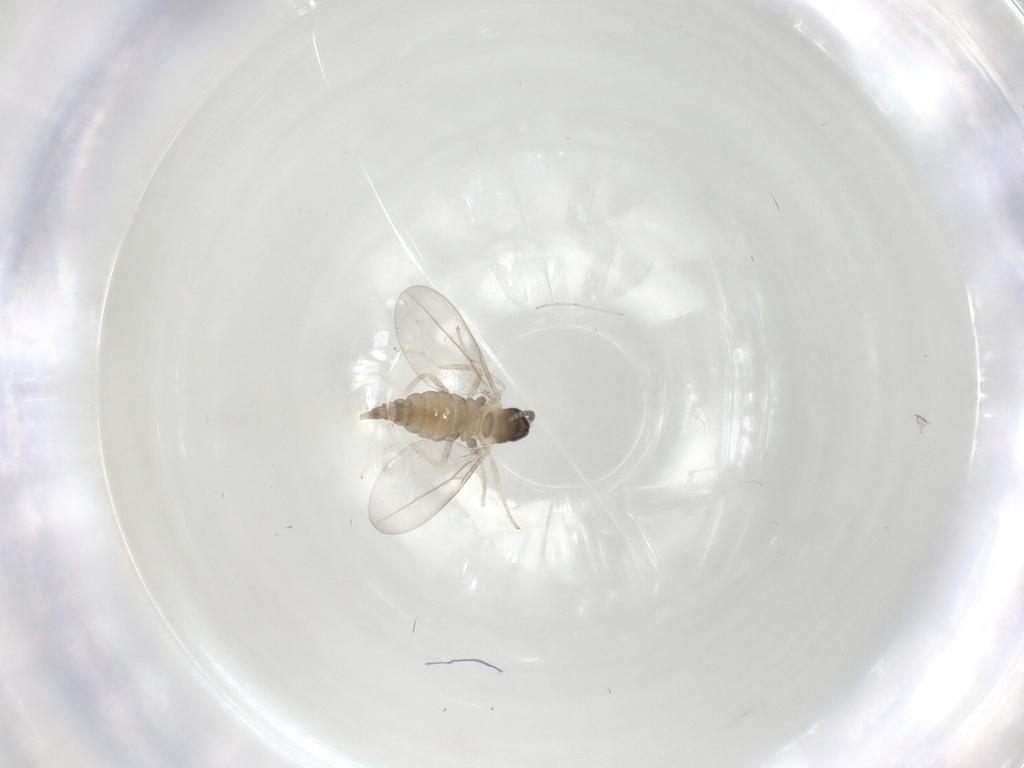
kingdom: Animalia
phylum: Arthropoda
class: Insecta
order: Diptera
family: Cecidomyiidae
